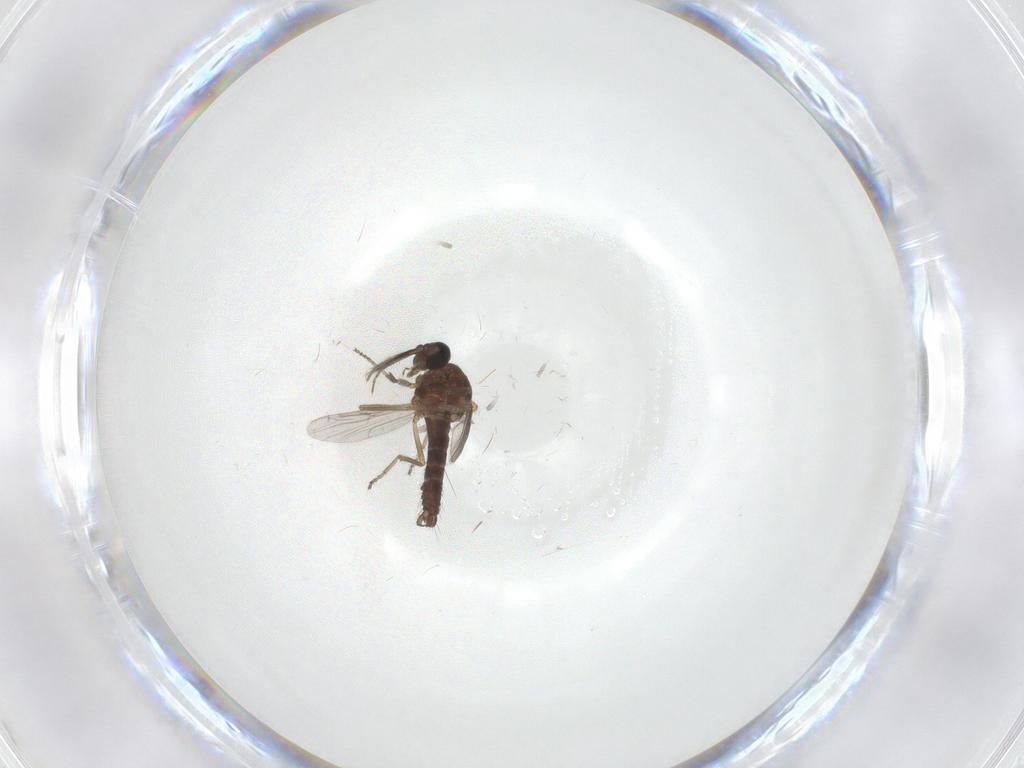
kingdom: Animalia
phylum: Arthropoda
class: Insecta
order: Diptera
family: Ceratopogonidae
